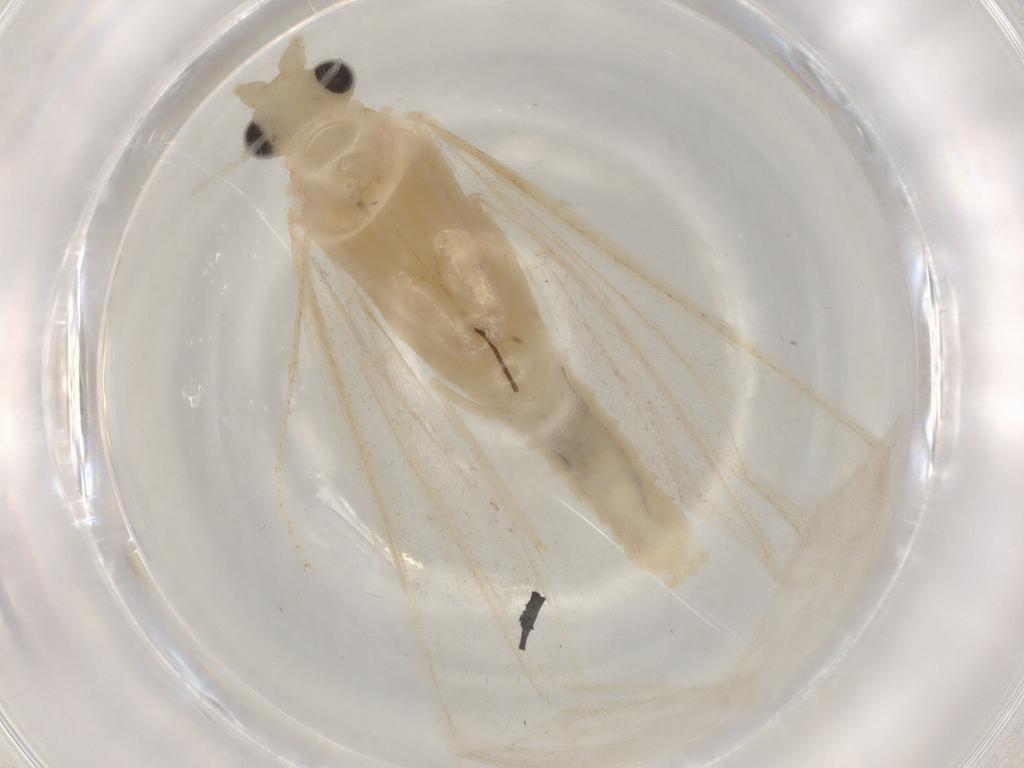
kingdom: Animalia
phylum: Arthropoda
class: Insecta
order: Trichoptera
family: Leptoceridae
